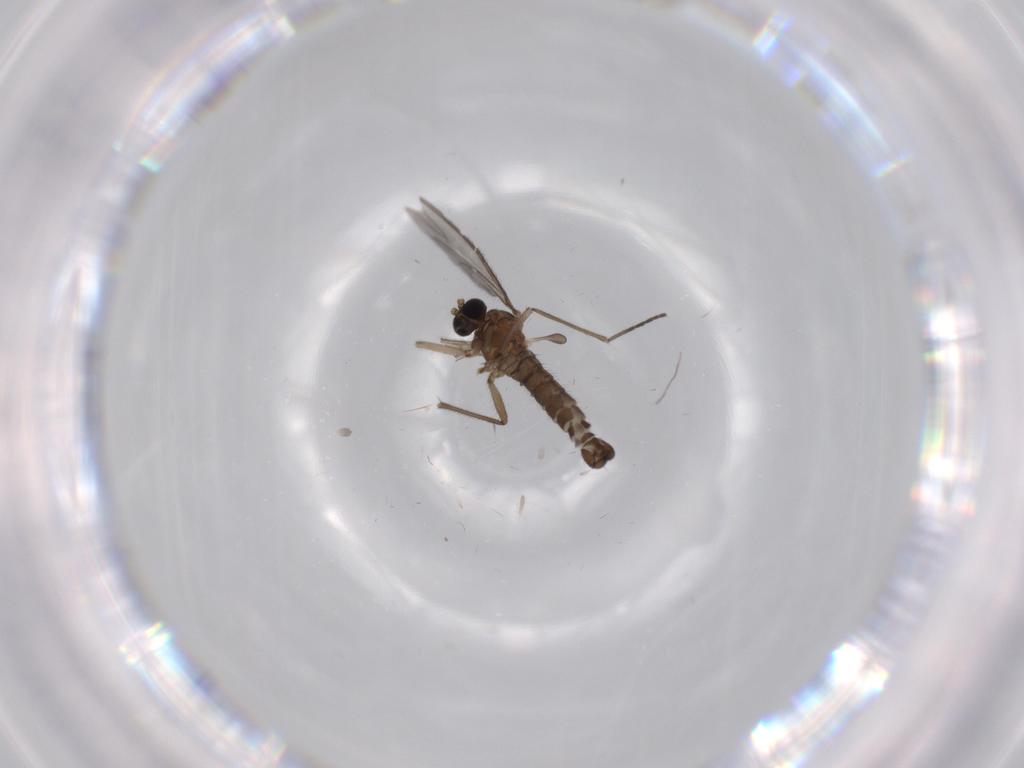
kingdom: Animalia
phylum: Arthropoda
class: Insecta
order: Diptera
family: Sciaridae
